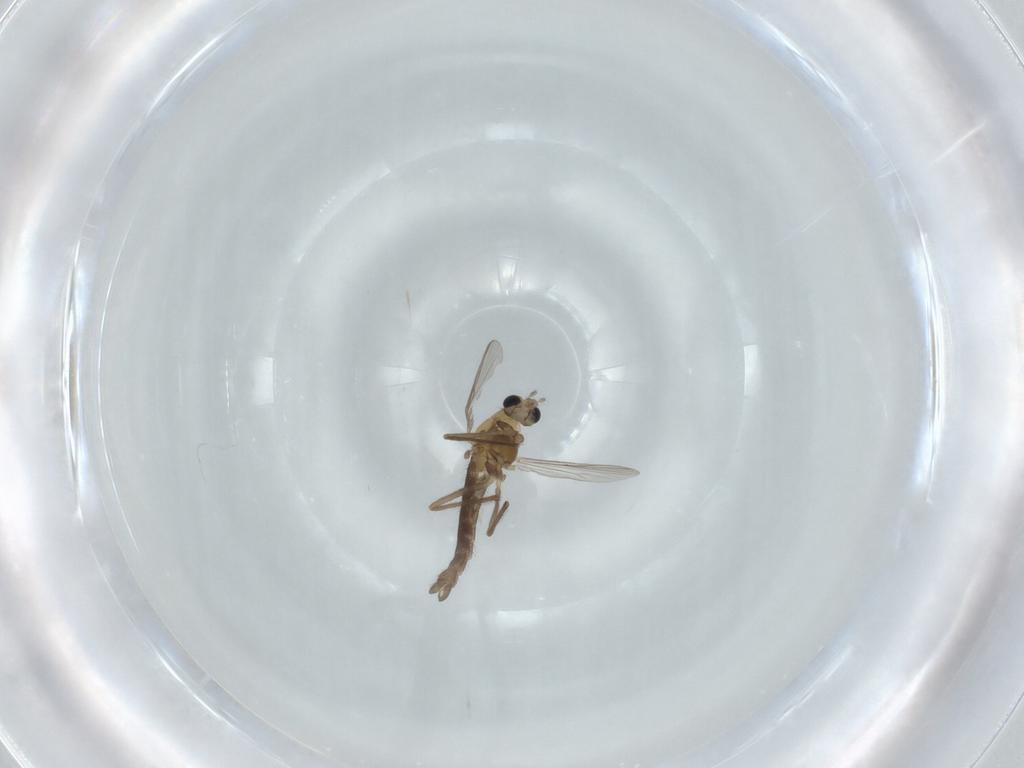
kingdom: Animalia
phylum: Arthropoda
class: Insecta
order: Diptera
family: Chironomidae
